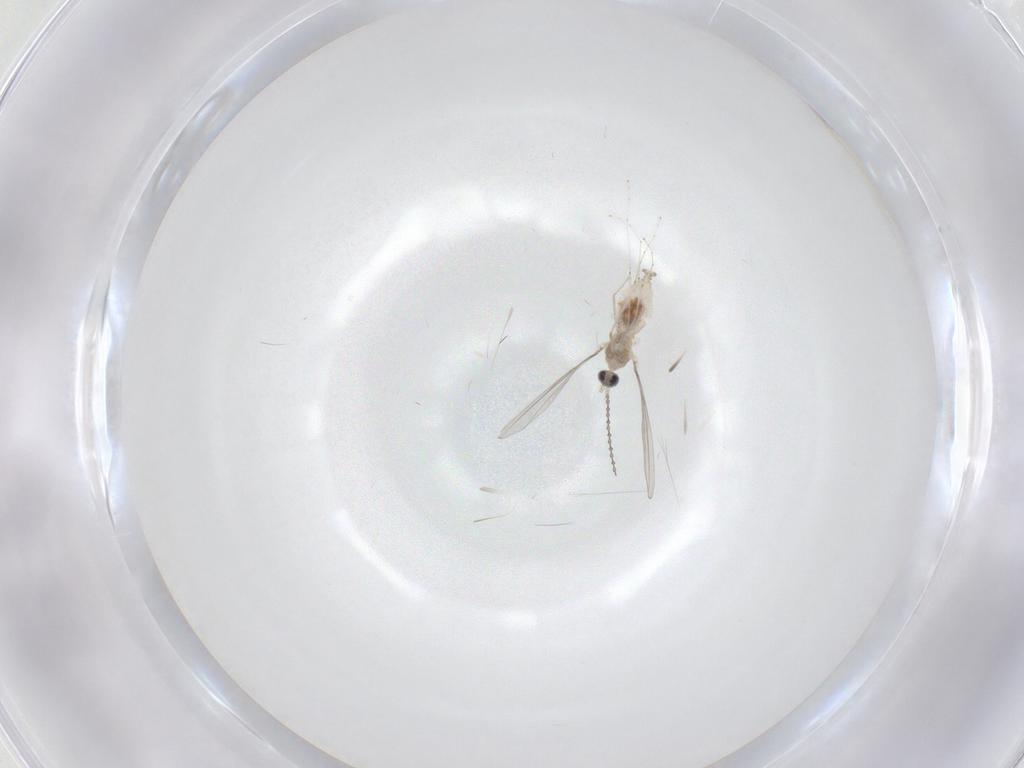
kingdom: Animalia
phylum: Arthropoda
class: Insecta
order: Diptera
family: Cecidomyiidae
